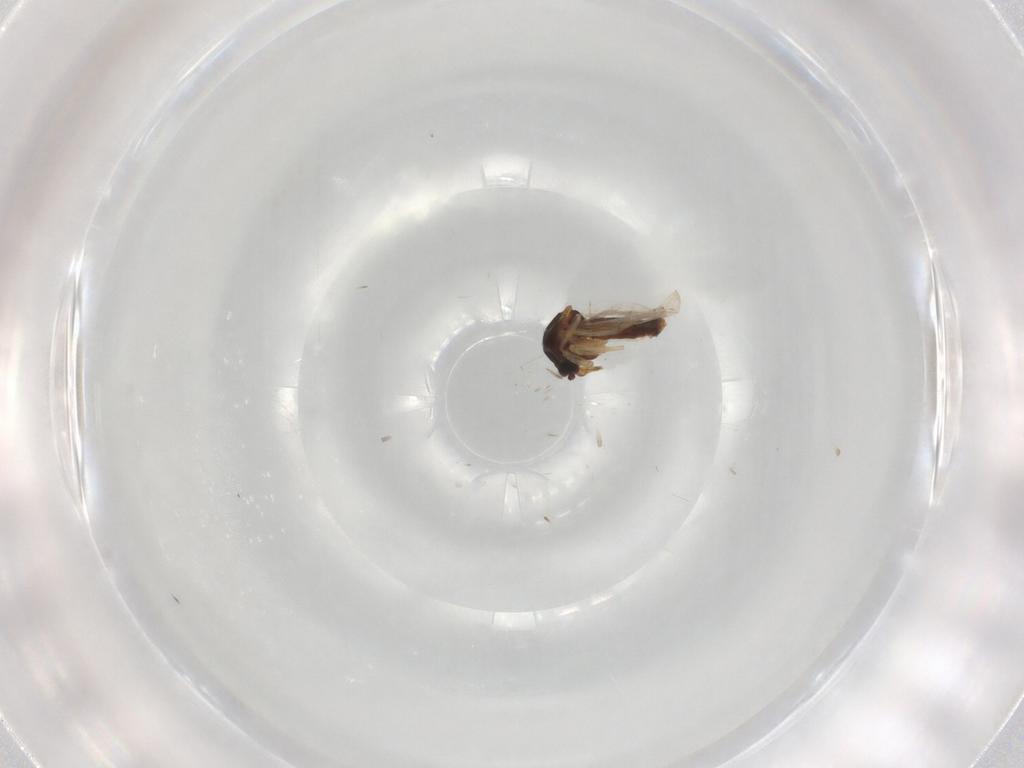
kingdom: Animalia
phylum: Arthropoda
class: Insecta
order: Diptera
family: Ceratopogonidae
